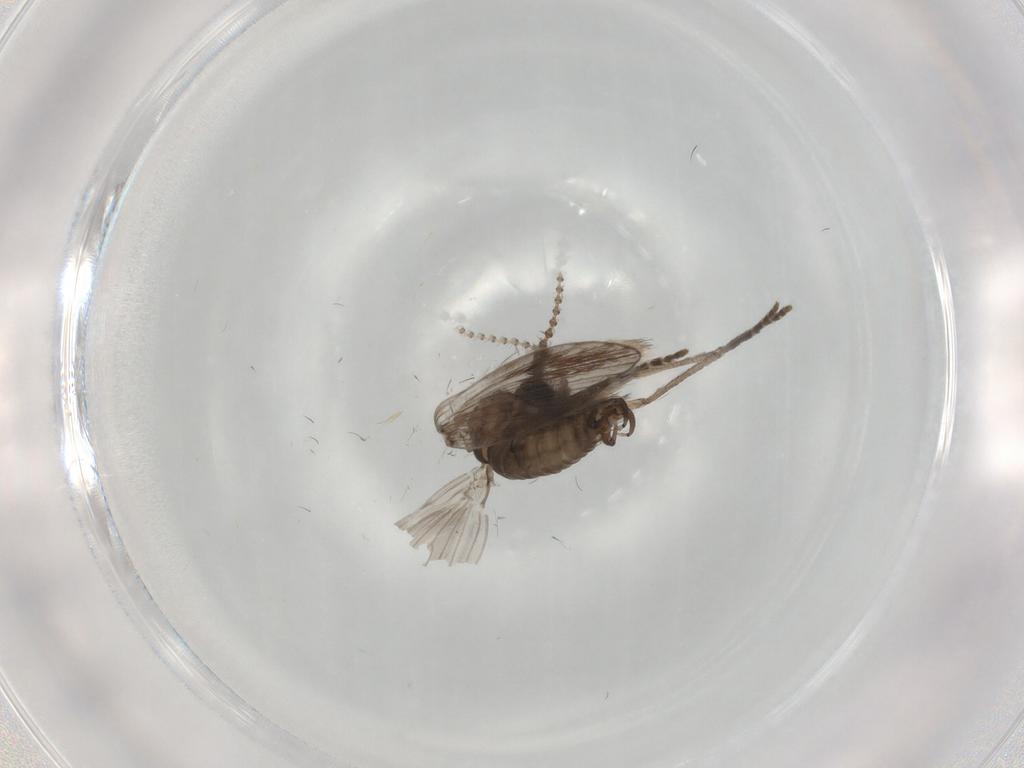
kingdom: Animalia
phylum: Arthropoda
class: Insecta
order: Diptera
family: Psychodidae
